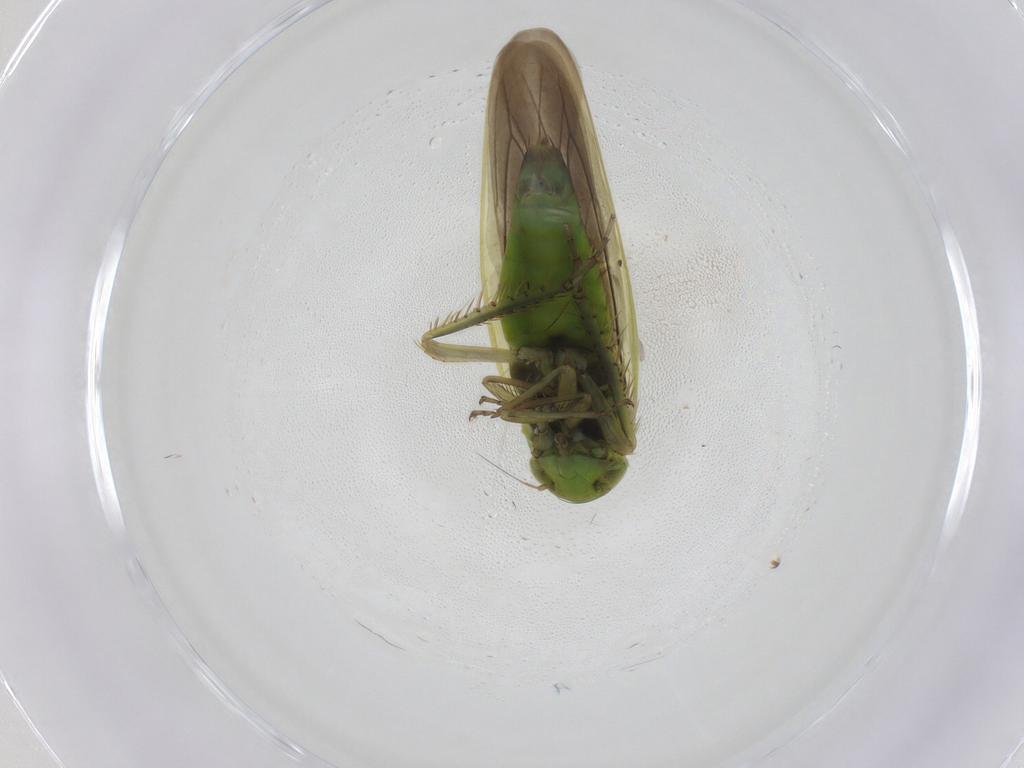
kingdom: Animalia
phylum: Arthropoda
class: Insecta
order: Hemiptera
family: Cicadellidae
